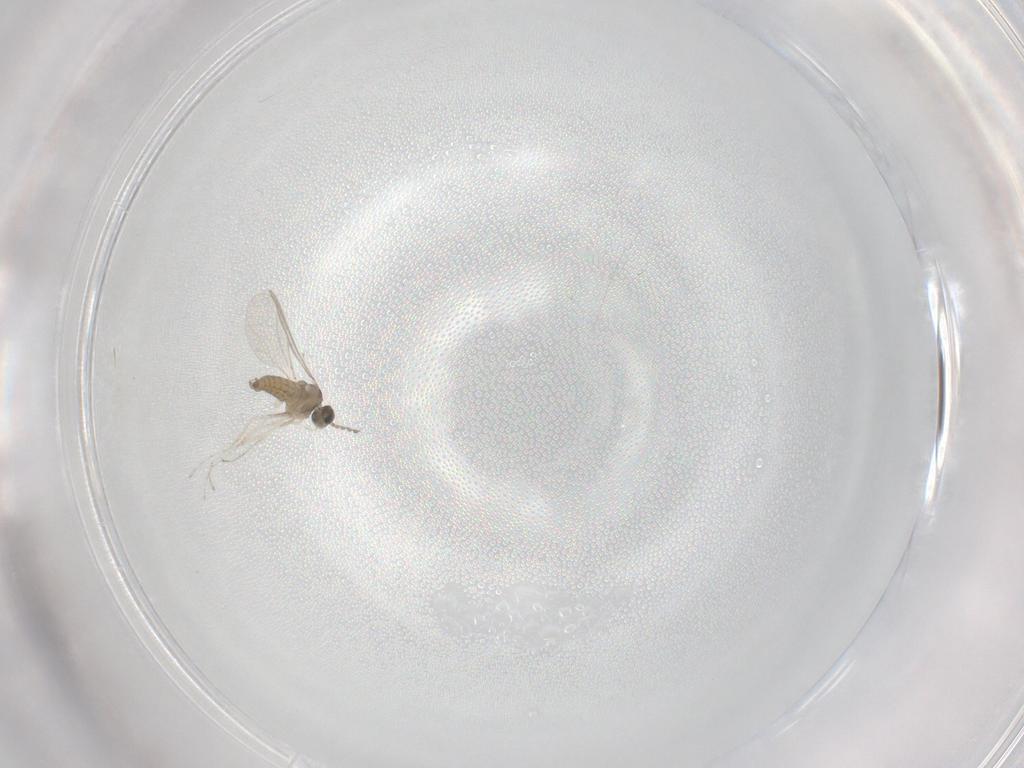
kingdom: Animalia
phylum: Arthropoda
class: Insecta
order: Diptera
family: Cecidomyiidae
